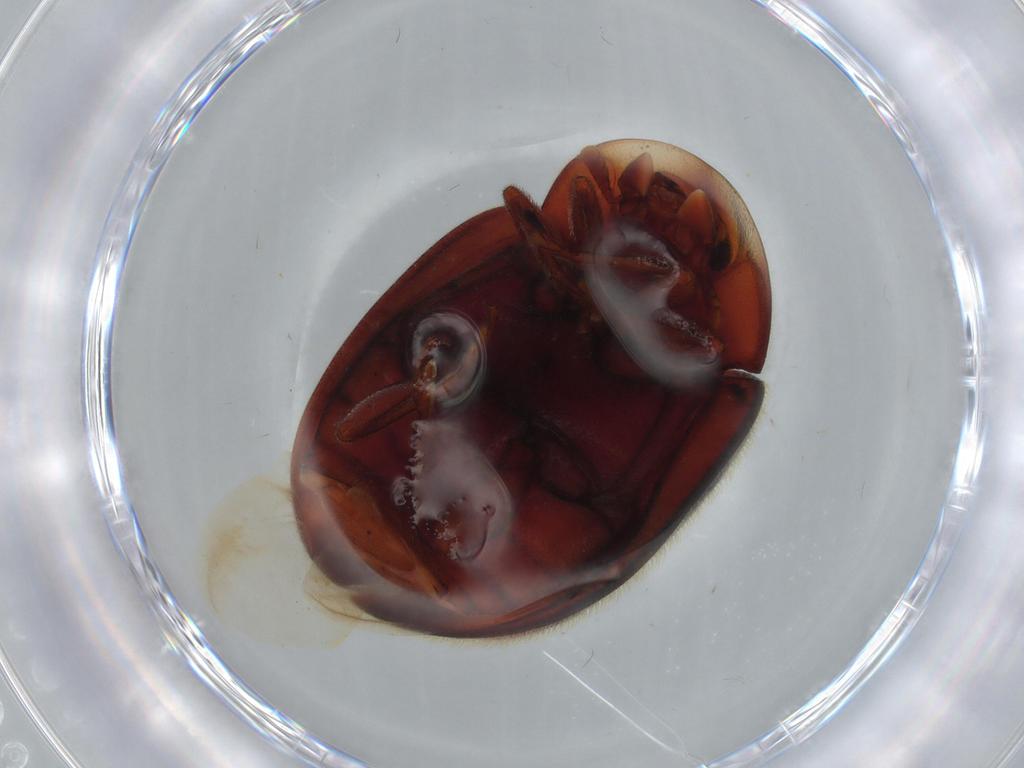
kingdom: Animalia
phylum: Arthropoda
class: Insecta
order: Coleoptera
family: Coccinellidae
